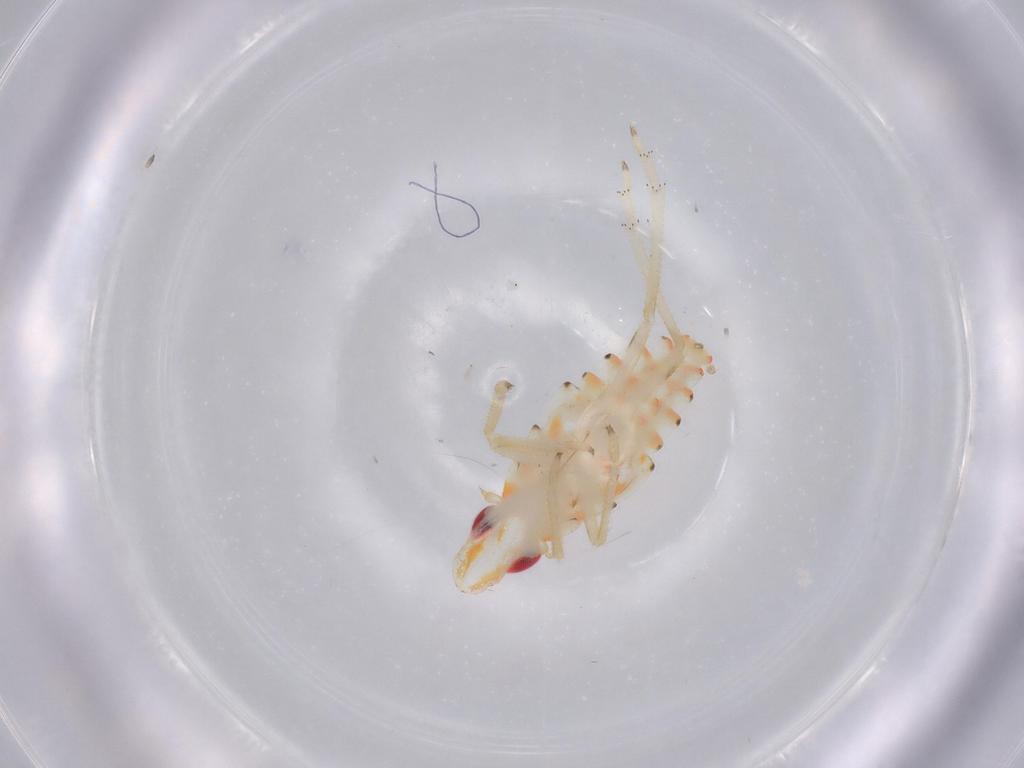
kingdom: Animalia
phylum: Arthropoda
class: Insecta
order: Hemiptera
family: Tropiduchidae
